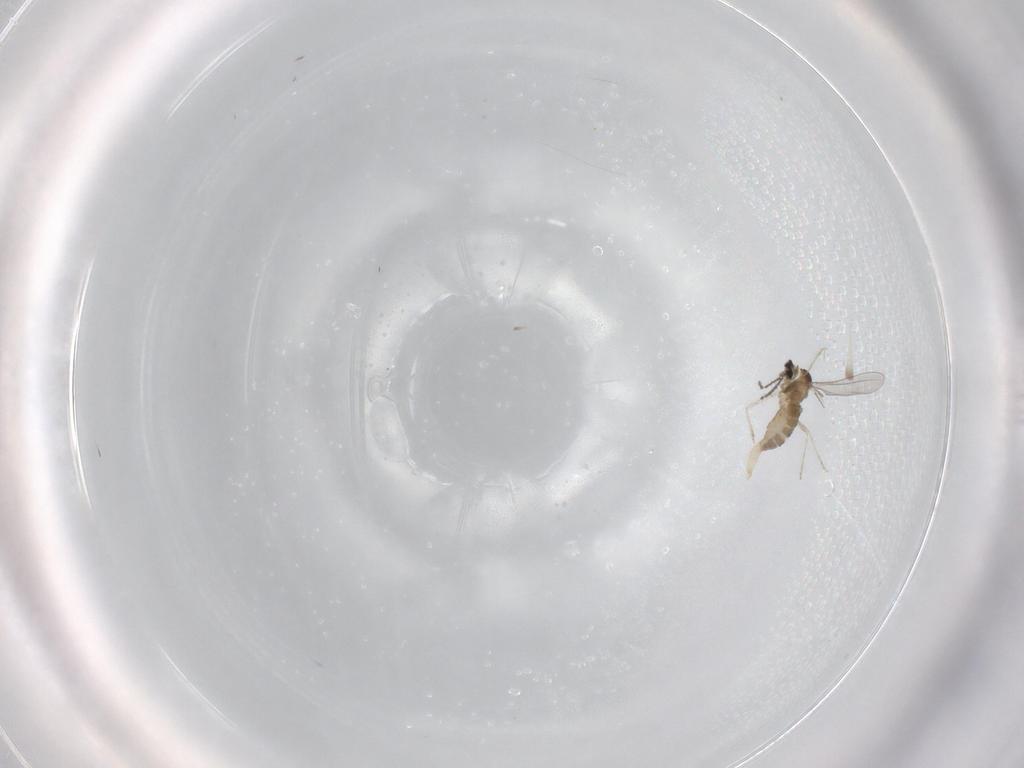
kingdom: Animalia
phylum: Arthropoda
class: Insecta
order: Diptera
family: Cecidomyiidae
